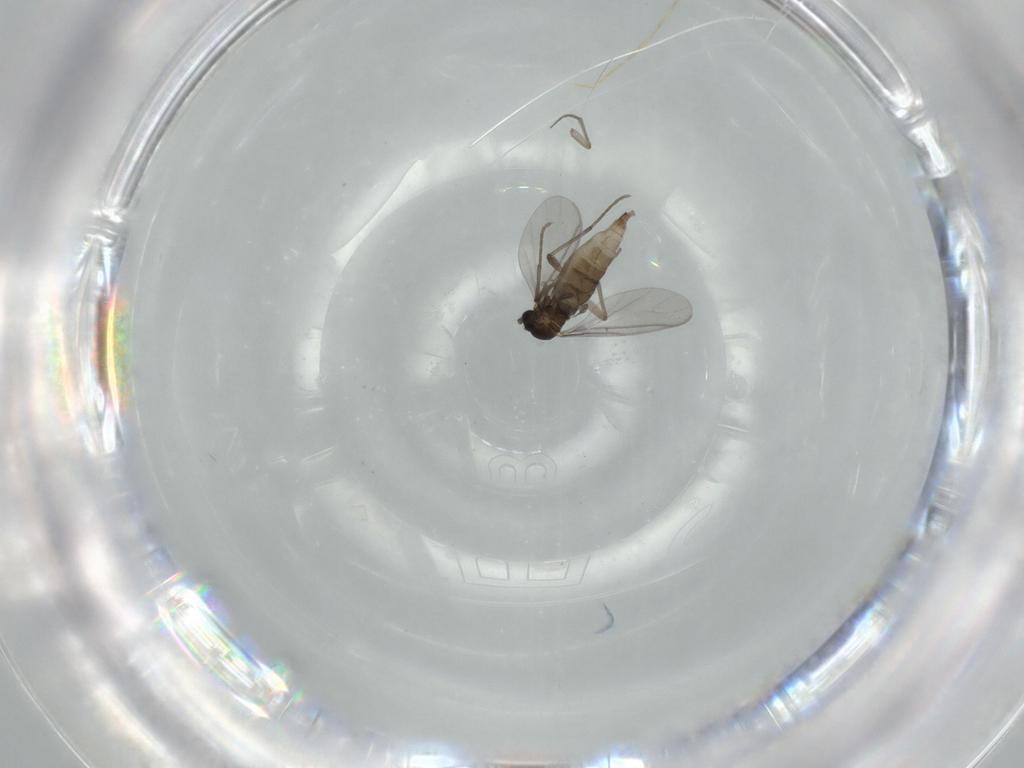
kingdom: Animalia
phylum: Arthropoda
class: Insecta
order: Diptera
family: Sciaridae
